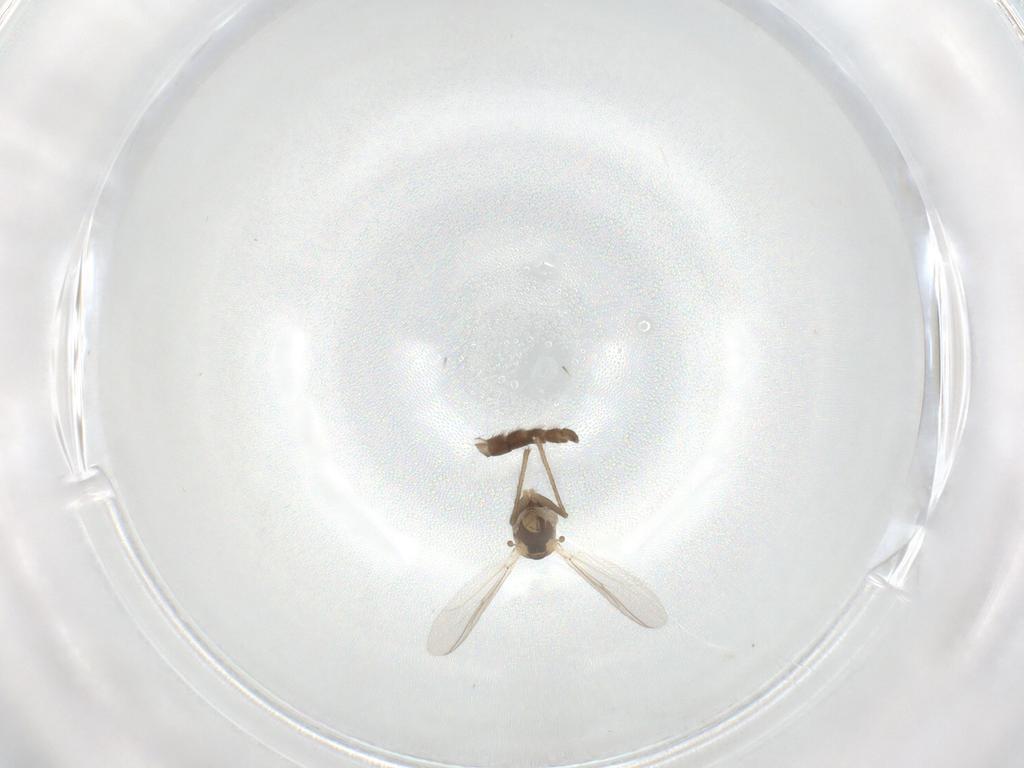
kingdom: Animalia
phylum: Arthropoda
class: Insecta
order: Diptera
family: Chironomidae
